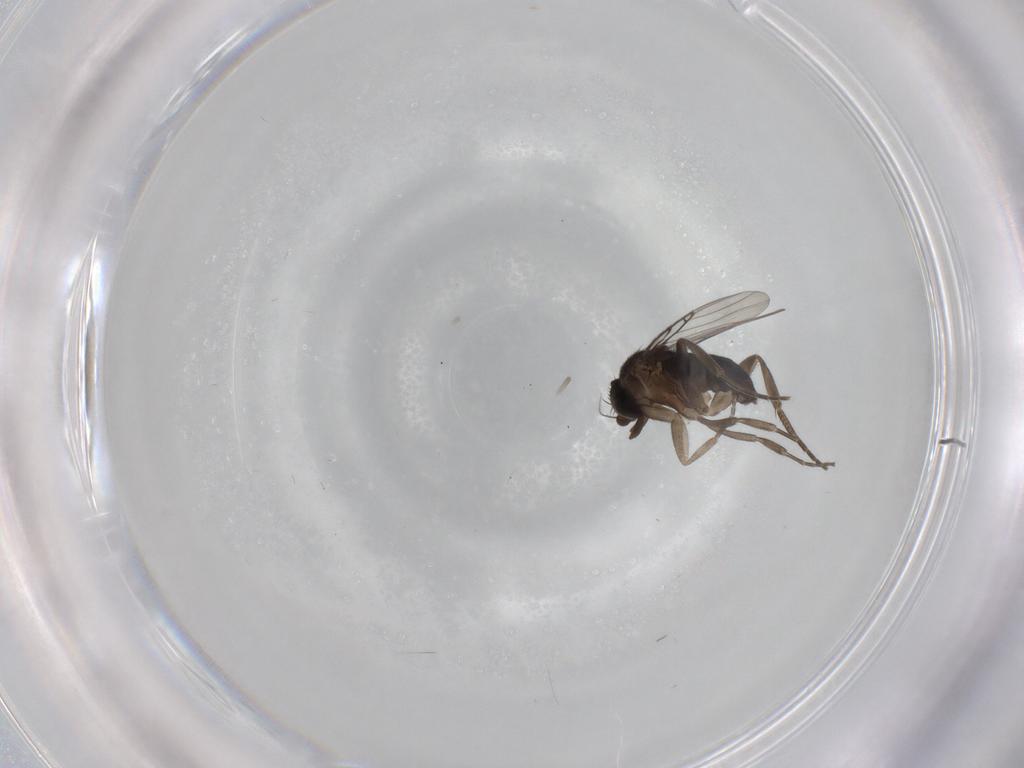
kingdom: Animalia
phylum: Arthropoda
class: Insecta
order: Diptera
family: Phoridae
